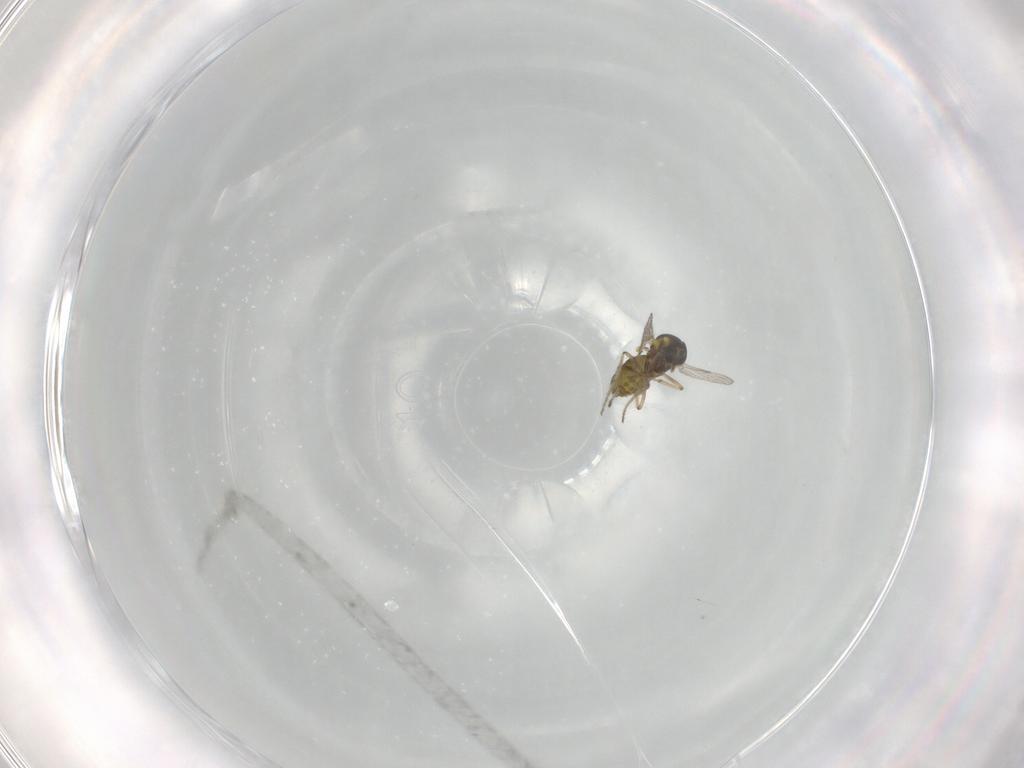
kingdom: Animalia
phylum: Arthropoda
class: Insecta
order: Diptera
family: Ceratopogonidae
